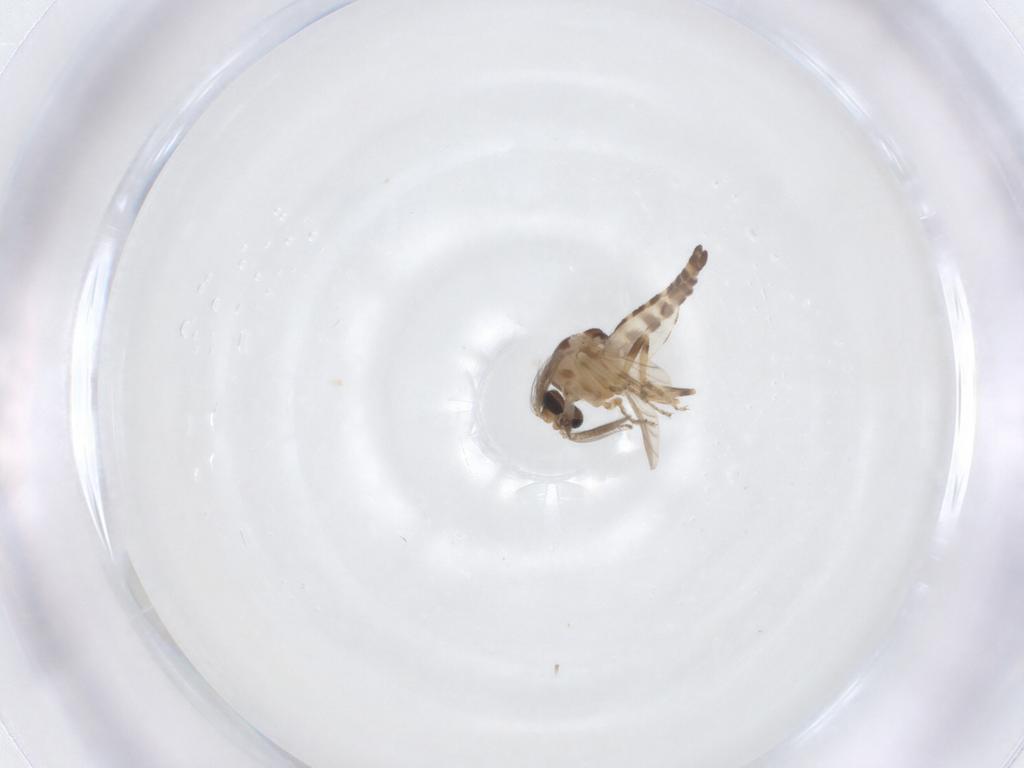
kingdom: Animalia
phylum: Arthropoda
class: Insecta
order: Diptera
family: Ceratopogonidae
